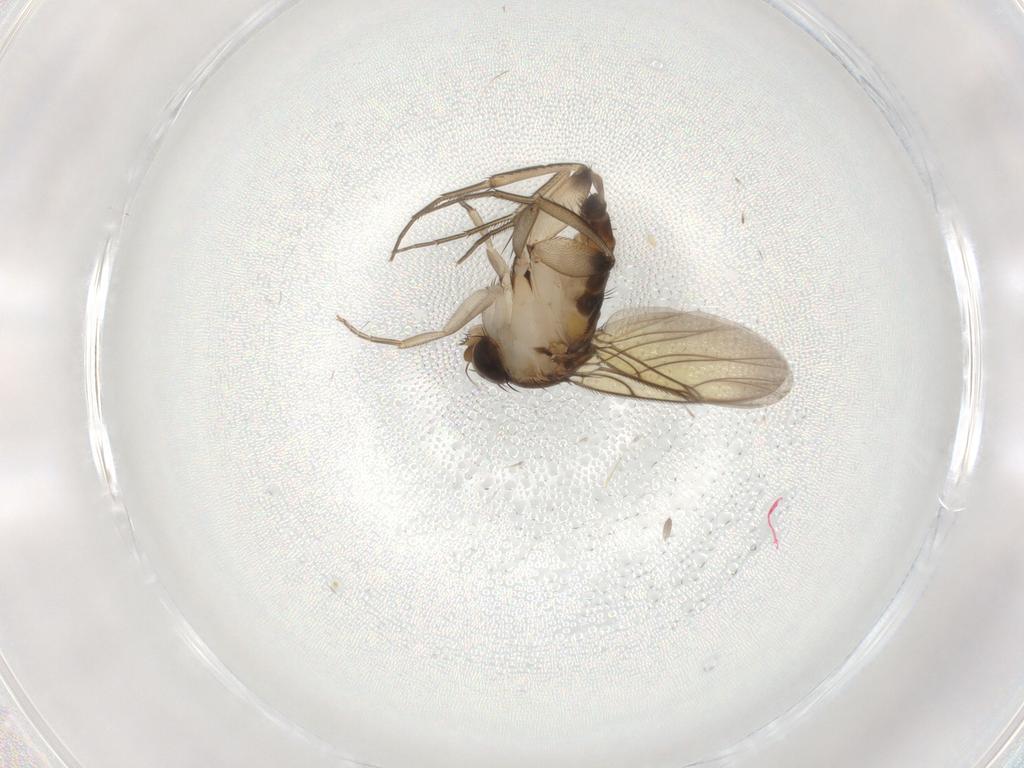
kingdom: Animalia
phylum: Arthropoda
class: Insecta
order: Diptera
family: Phoridae
